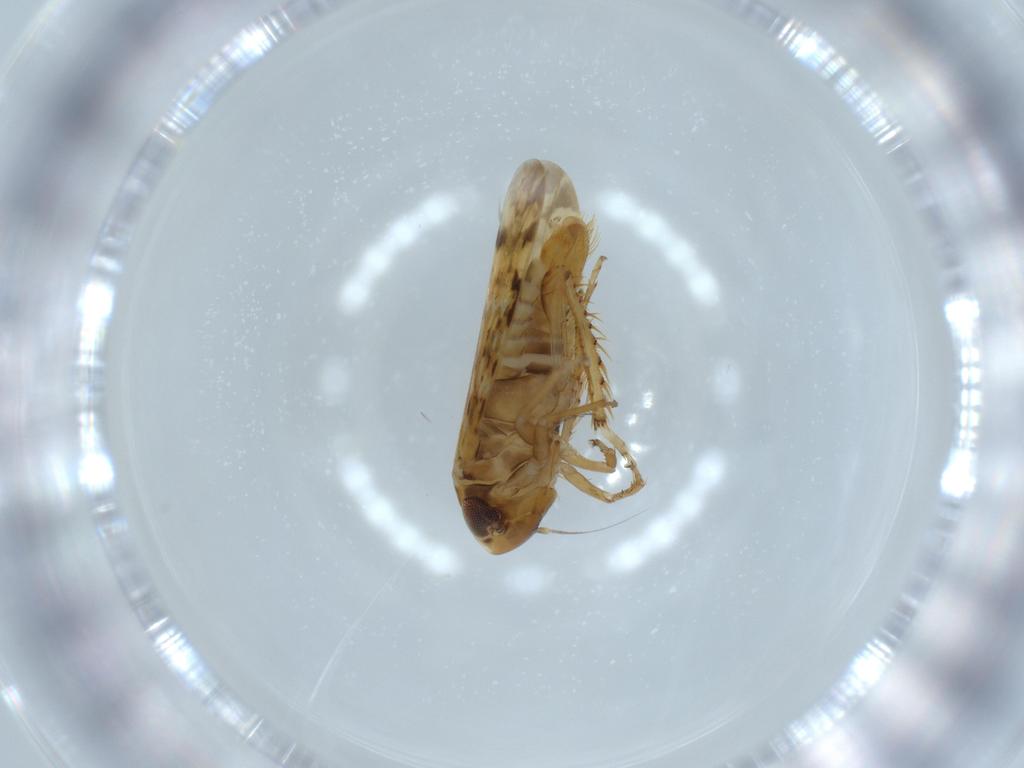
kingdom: Animalia
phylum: Arthropoda
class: Insecta
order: Hemiptera
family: Cicadellidae
